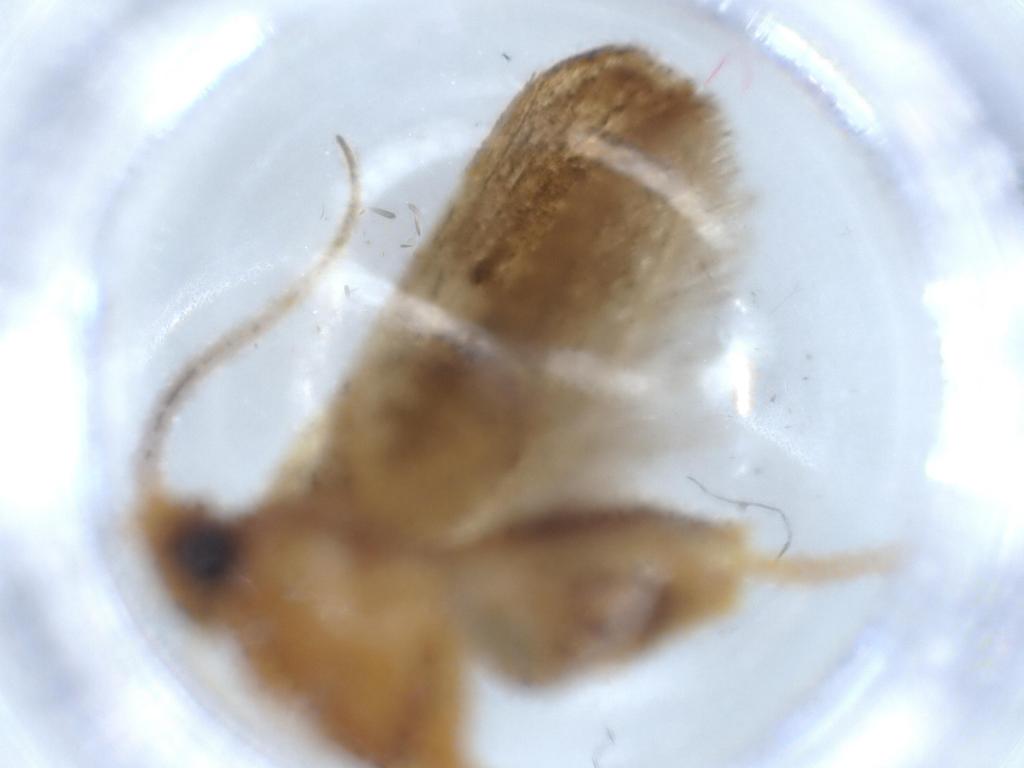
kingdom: Animalia
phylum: Arthropoda
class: Insecta
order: Lepidoptera
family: Blastobasidae
